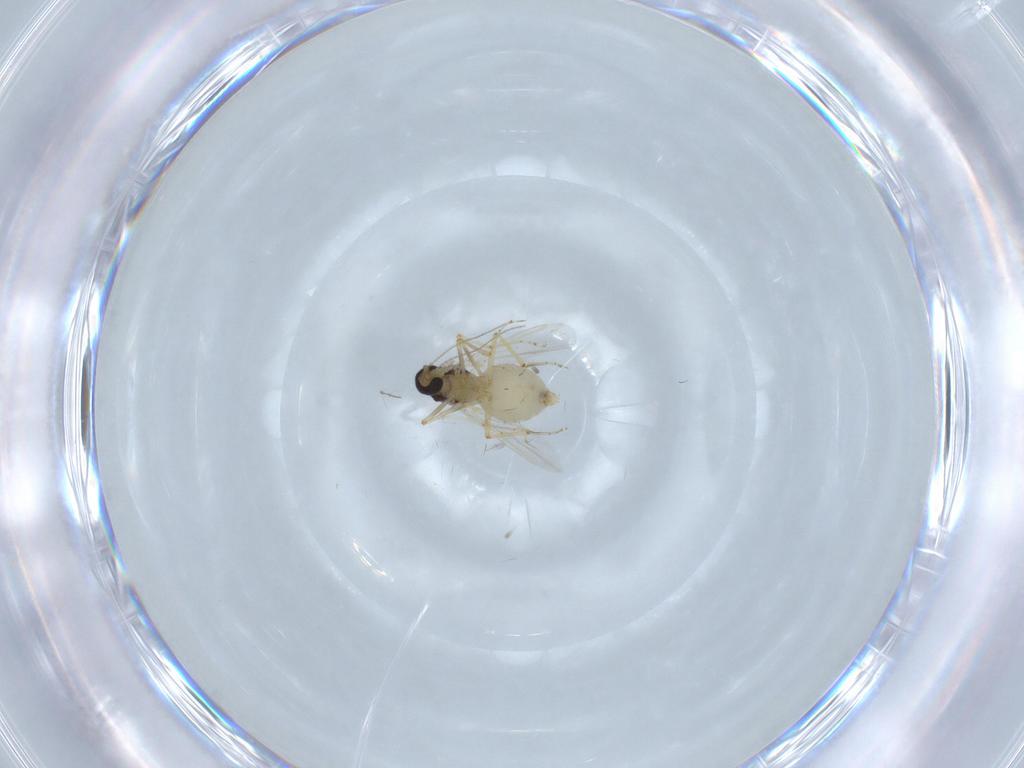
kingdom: Animalia
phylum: Arthropoda
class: Insecta
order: Diptera
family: Ceratopogonidae
